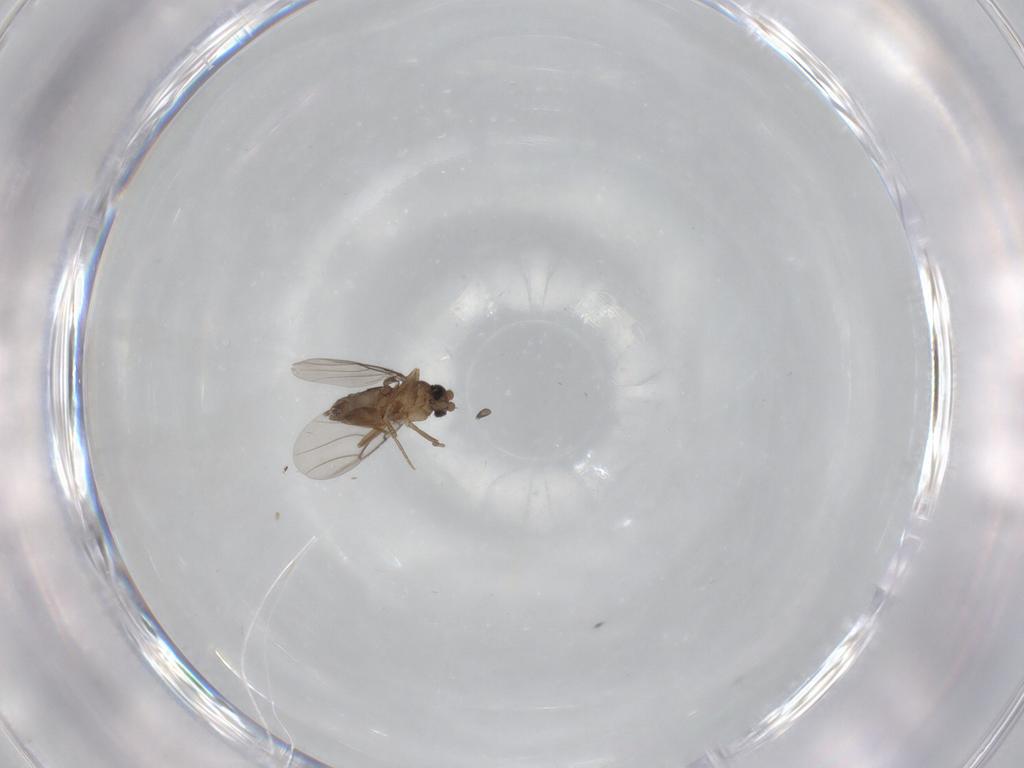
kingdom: Animalia
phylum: Arthropoda
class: Insecta
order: Diptera
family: Phoridae
